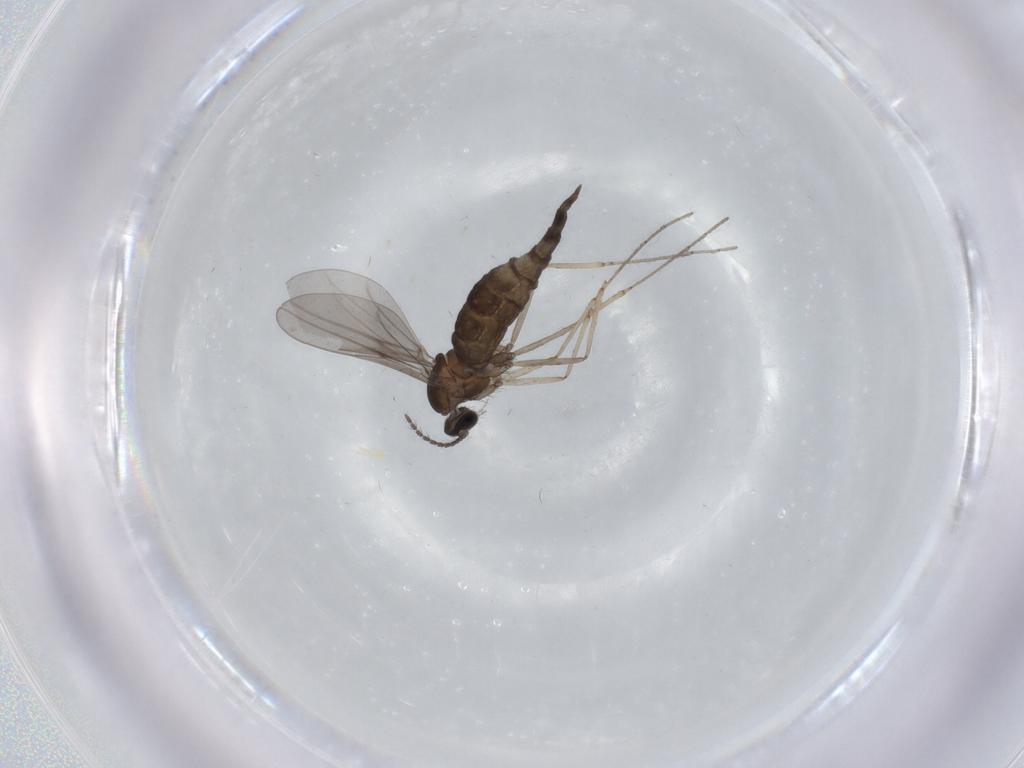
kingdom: Animalia
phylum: Arthropoda
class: Insecta
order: Diptera
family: Cecidomyiidae
